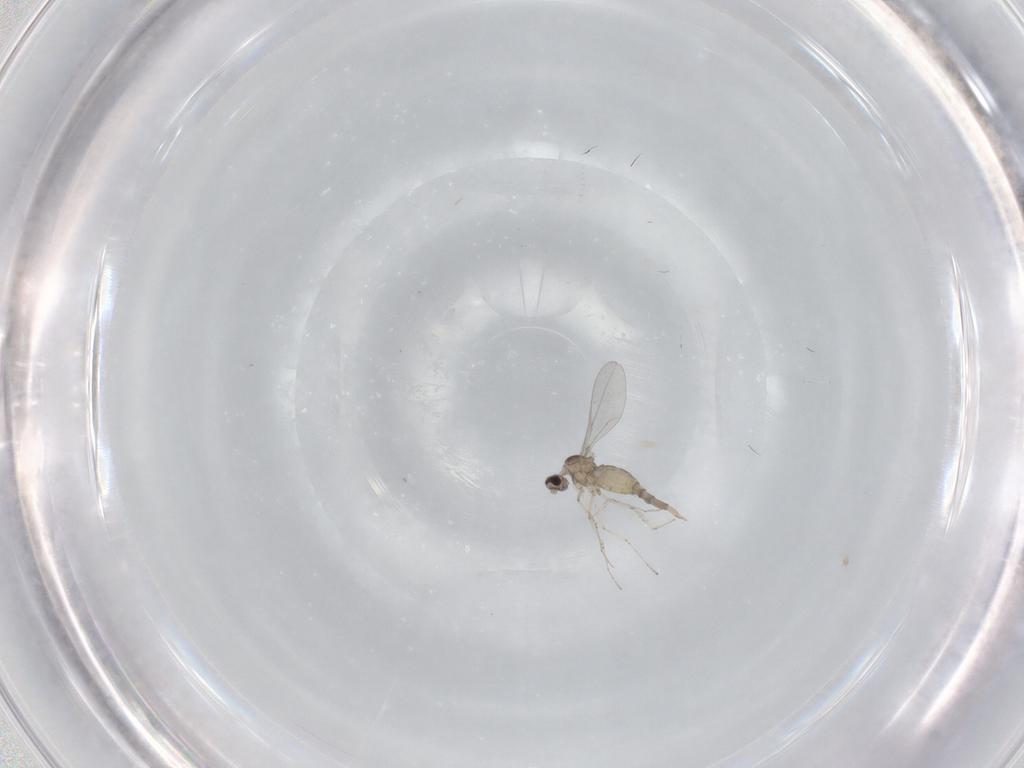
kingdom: Animalia
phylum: Arthropoda
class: Insecta
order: Diptera
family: Cecidomyiidae
